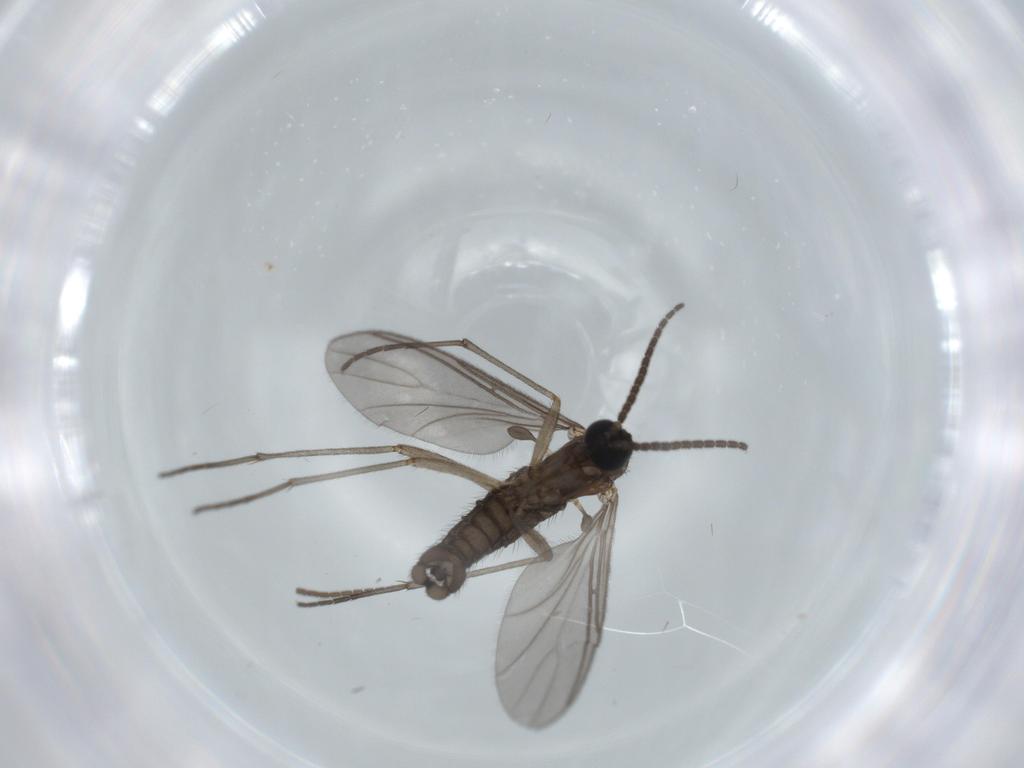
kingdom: Animalia
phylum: Arthropoda
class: Insecta
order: Diptera
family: Sciaridae
